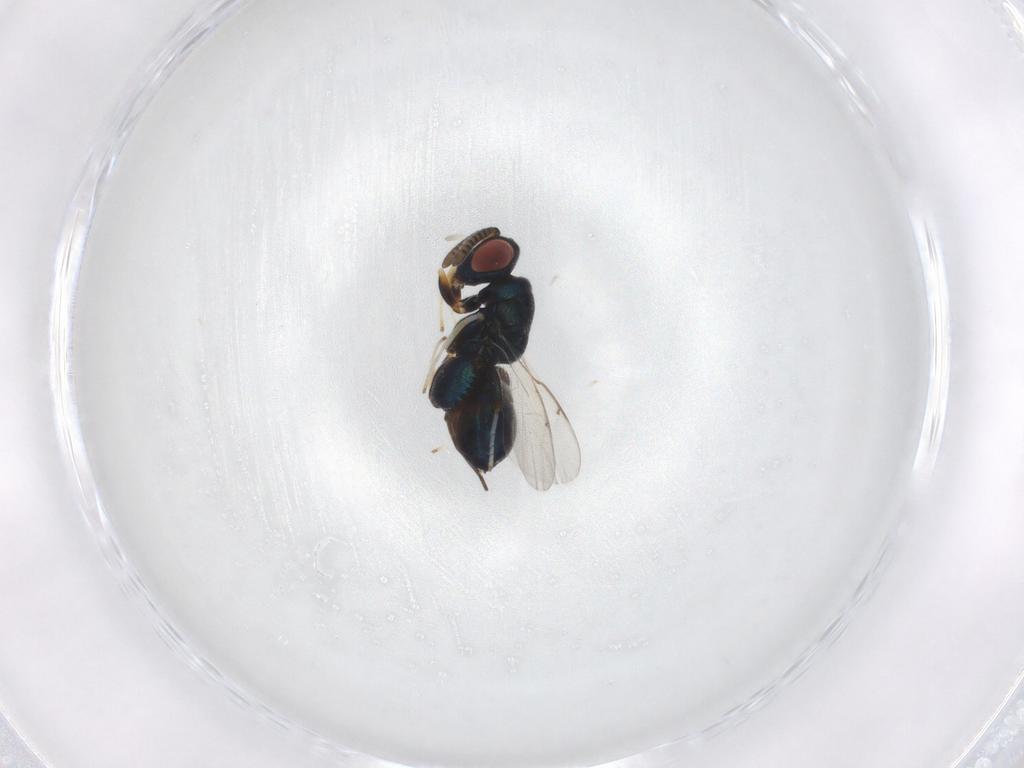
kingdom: Animalia
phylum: Arthropoda
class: Insecta
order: Hymenoptera
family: Torymidae
